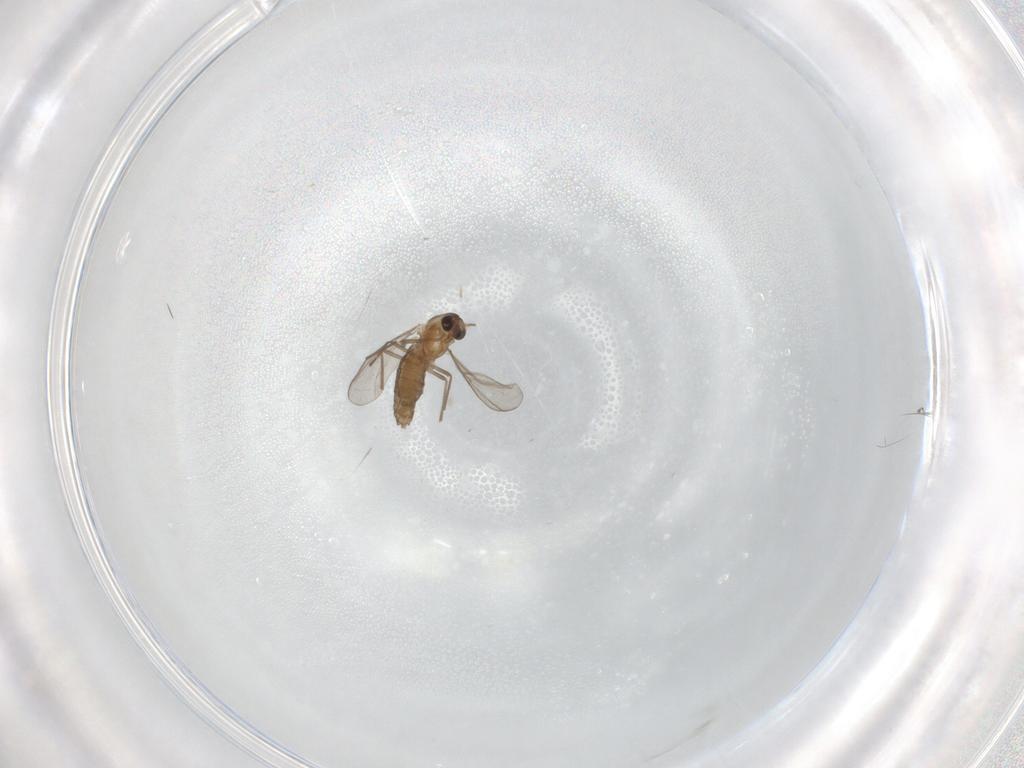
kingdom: Animalia
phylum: Arthropoda
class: Insecta
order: Diptera
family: Chironomidae
